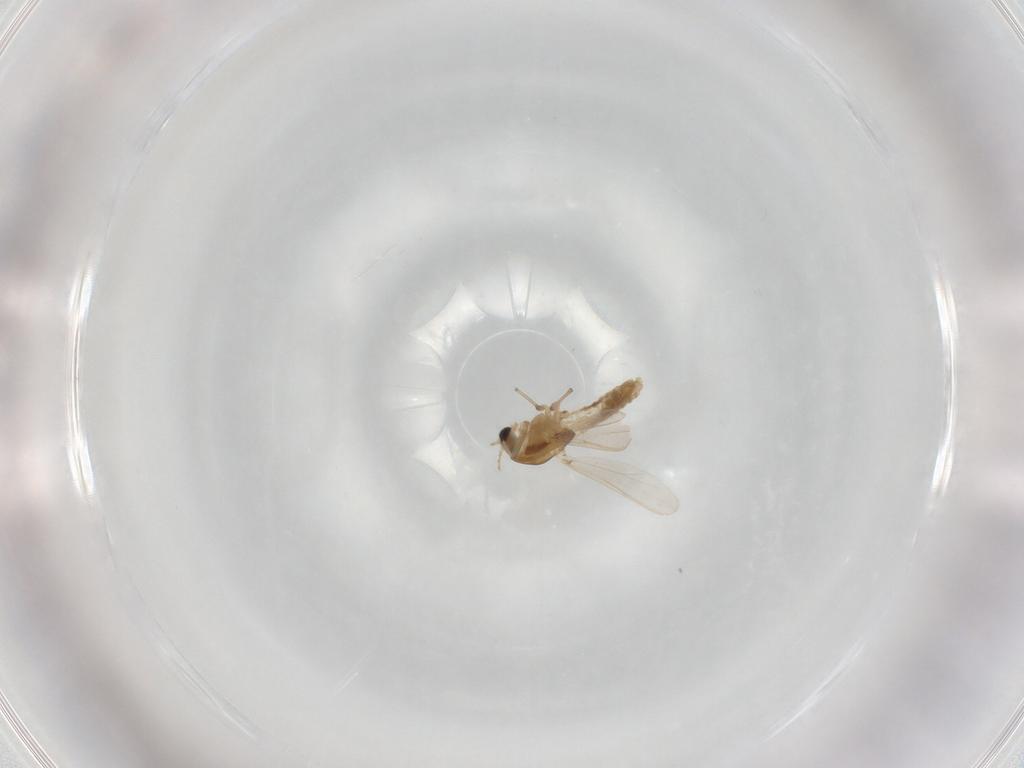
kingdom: Animalia
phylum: Arthropoda
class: Insecta
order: Diptera
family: Chironomidae
